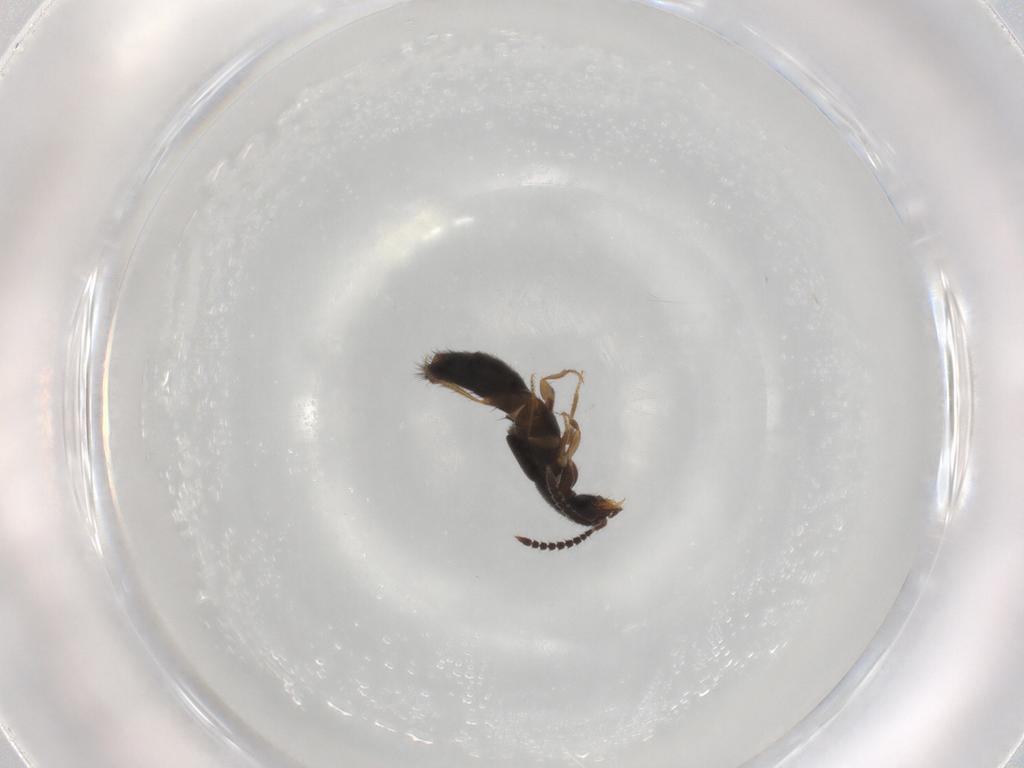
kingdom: Animalia
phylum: Arthropoda
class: Insecta
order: Coleoptera
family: Staphylinidae
